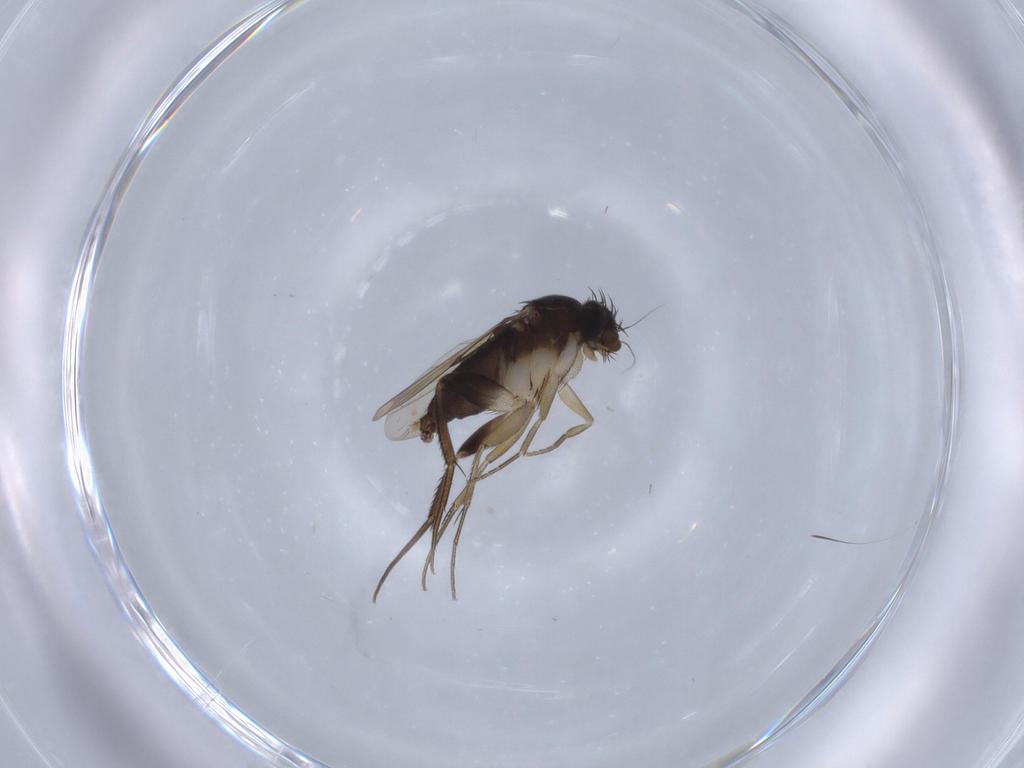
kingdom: Animalia
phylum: Arthropoda
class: Insecta
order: Diptera
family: Phoridae
